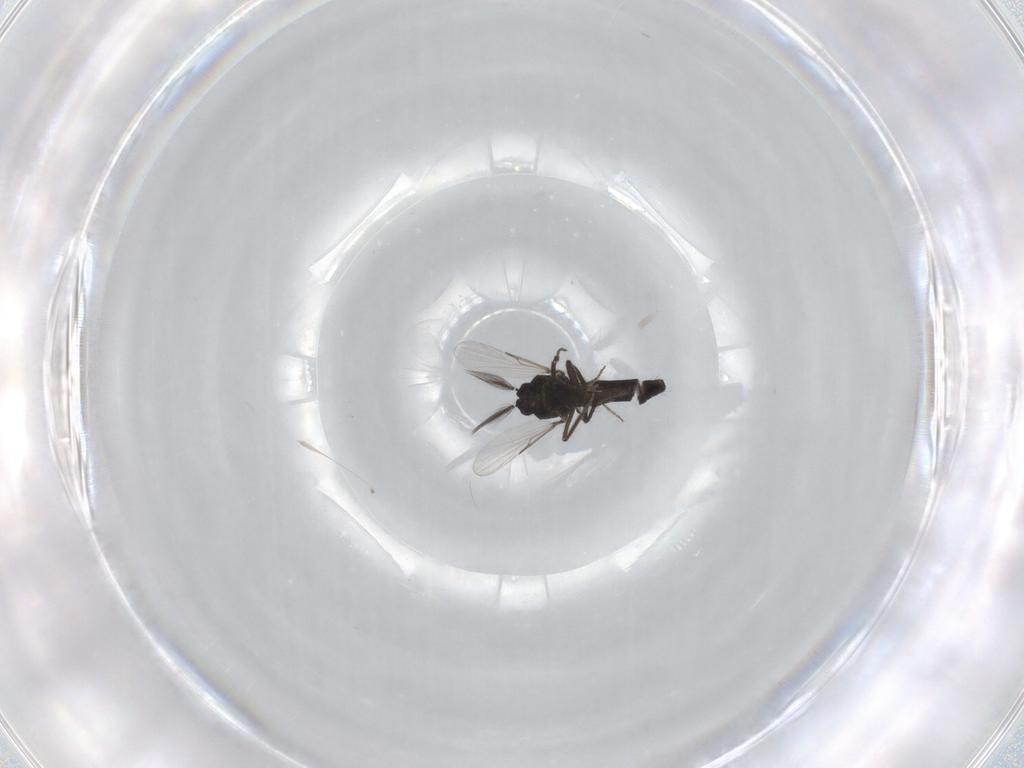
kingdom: Animalia
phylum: Arthropoda
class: Insecta
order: Diptera
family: Ceratopogonidae
